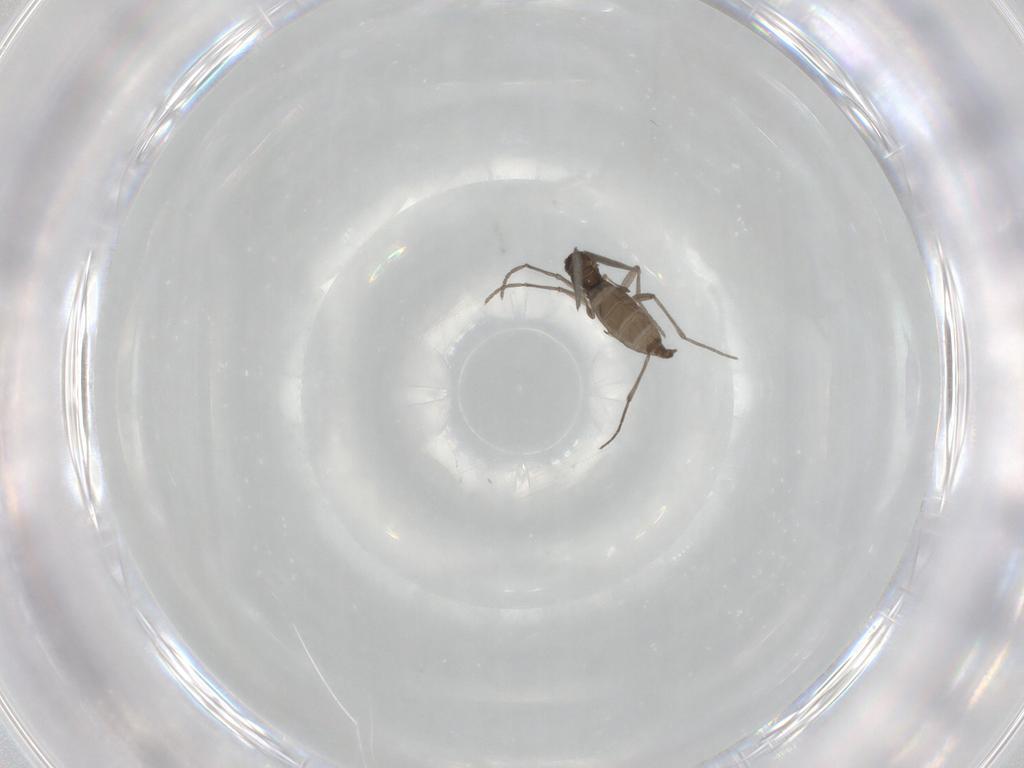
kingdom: Animalia
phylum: Arthropoda
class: Insecta
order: Diptera
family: Sciaridae
